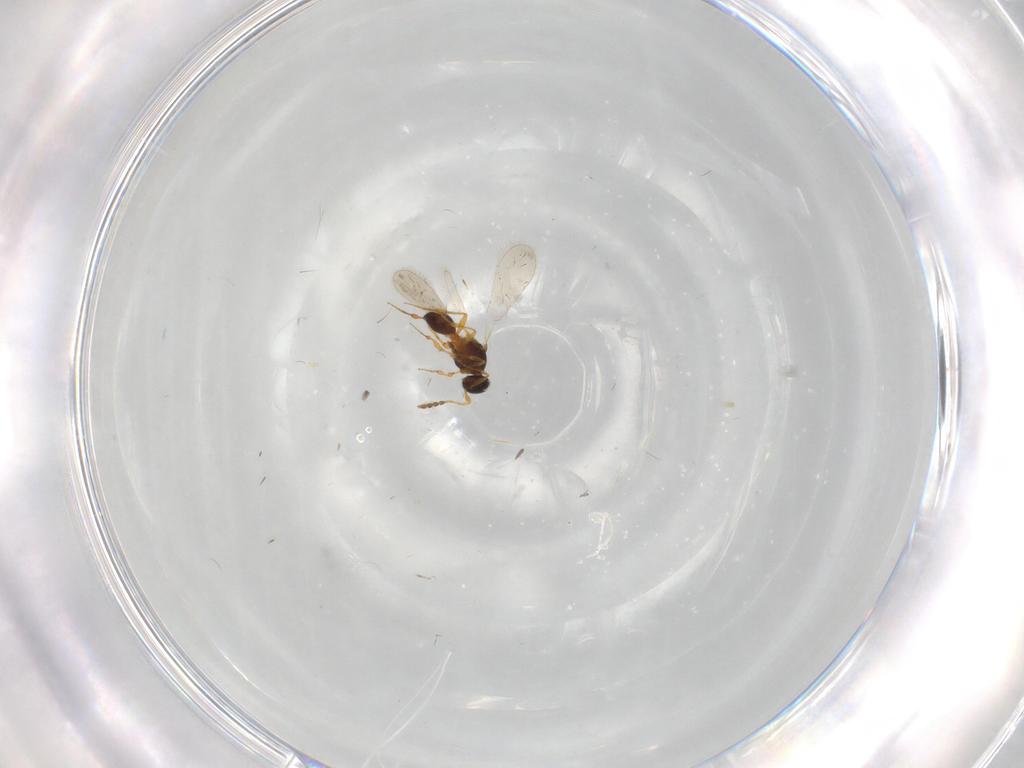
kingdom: Animalia
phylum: Arthropoda
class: Insecta
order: Hymenoptera
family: Platygastridae
